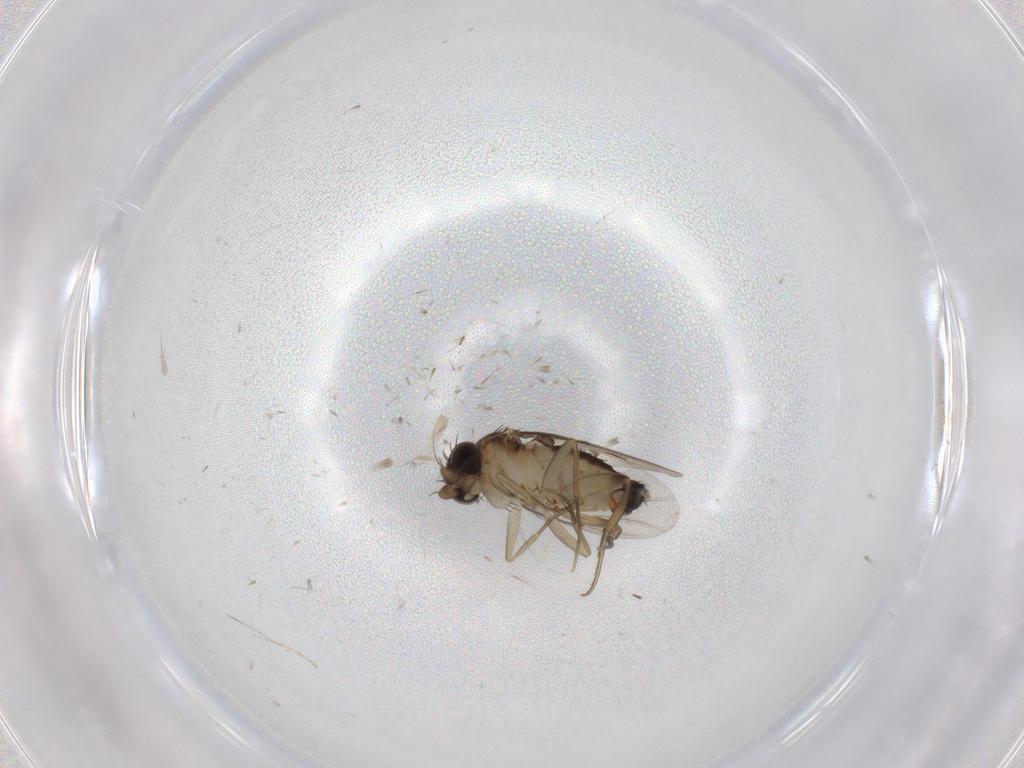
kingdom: Animalia
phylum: Arthropoda
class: Insecta
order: Diptera
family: Phoridae
